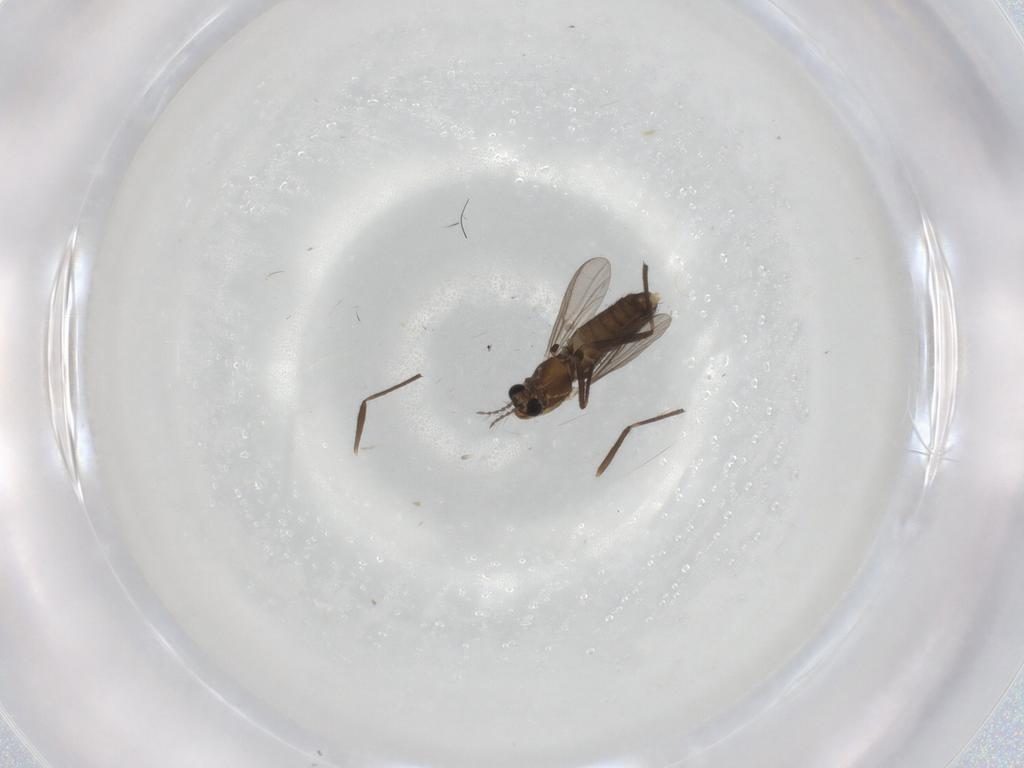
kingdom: Animalia
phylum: Arthropoda
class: Insecta
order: Diptera
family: Chironomidae
